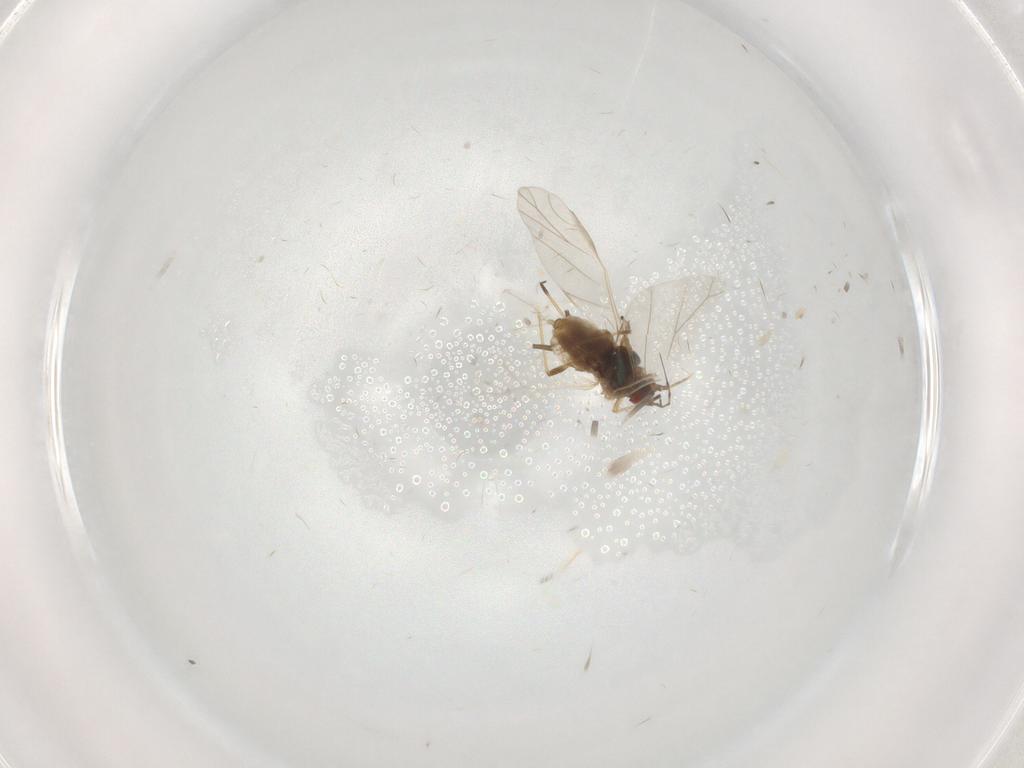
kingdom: Animalia
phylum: Arthropoda
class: Insecta
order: Hemiptera
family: Aphididae
